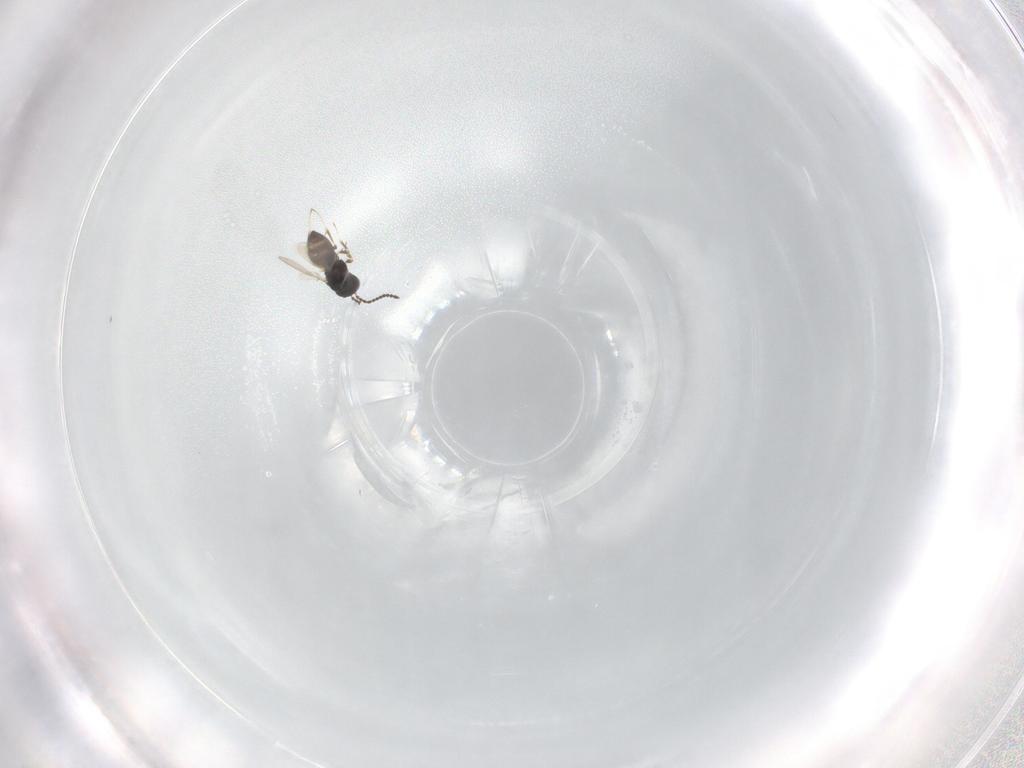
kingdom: Animalia
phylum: Arthropoda
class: Insecta
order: Hymenoptera
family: Scelionidae
